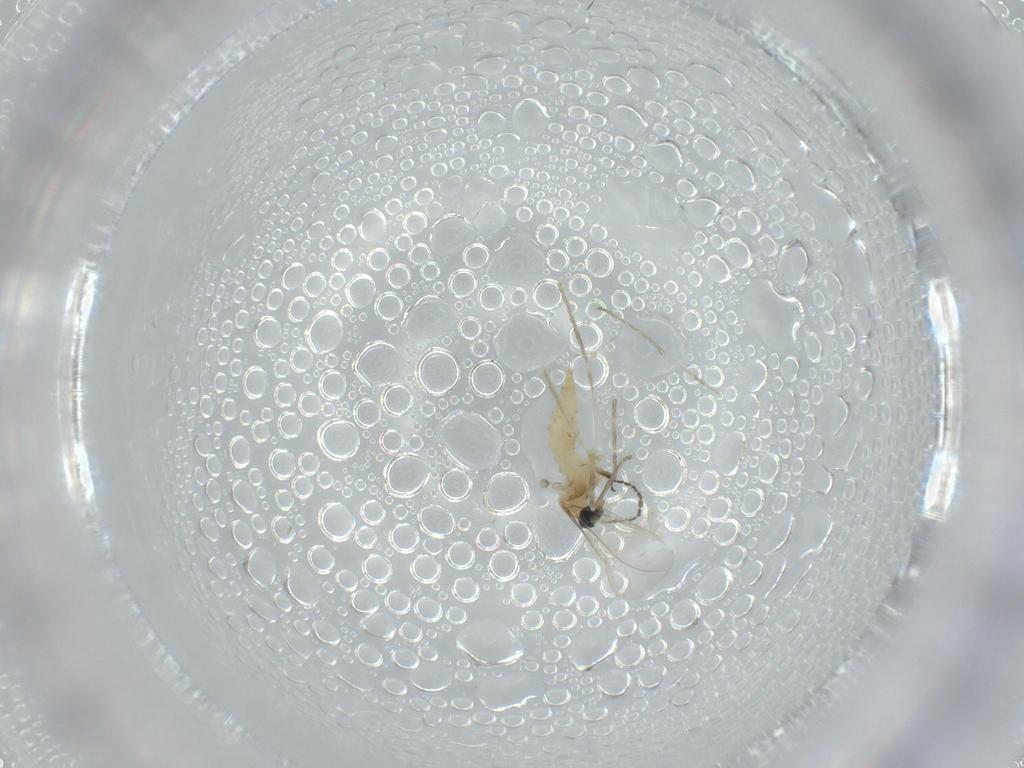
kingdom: Animalia
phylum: Arthropoda
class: Insecta
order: Diptera
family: Cecidomyiidae
